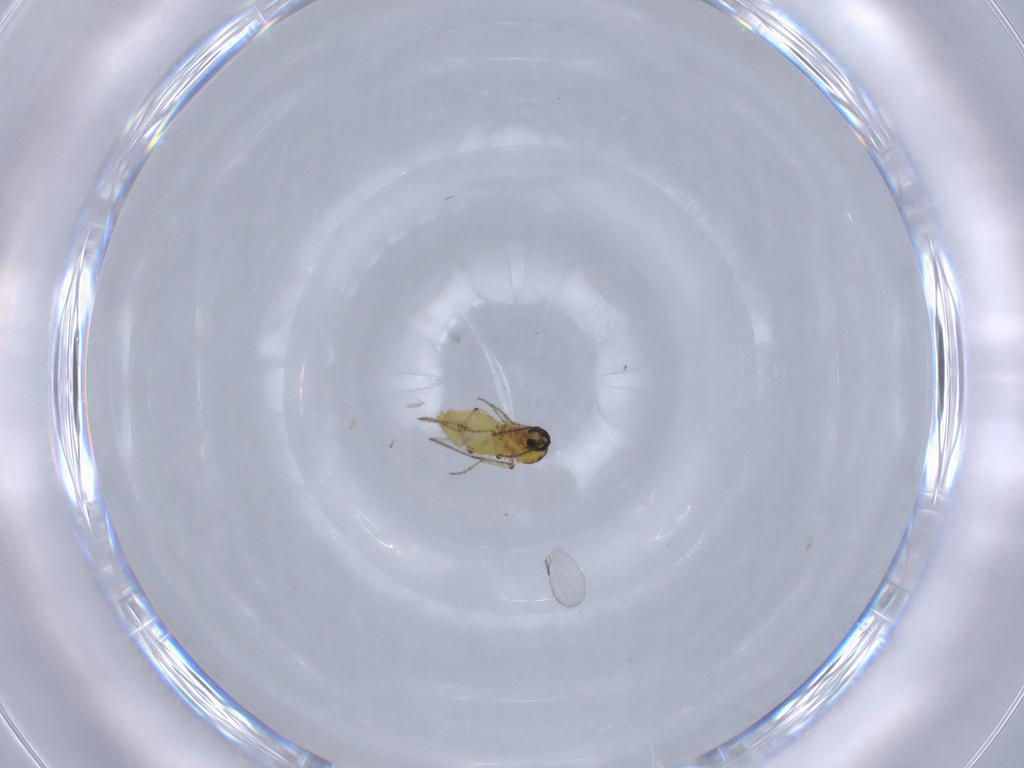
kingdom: Animalia
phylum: Arthropoda
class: Insecta
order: Diptera
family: Ceratopogonidae
